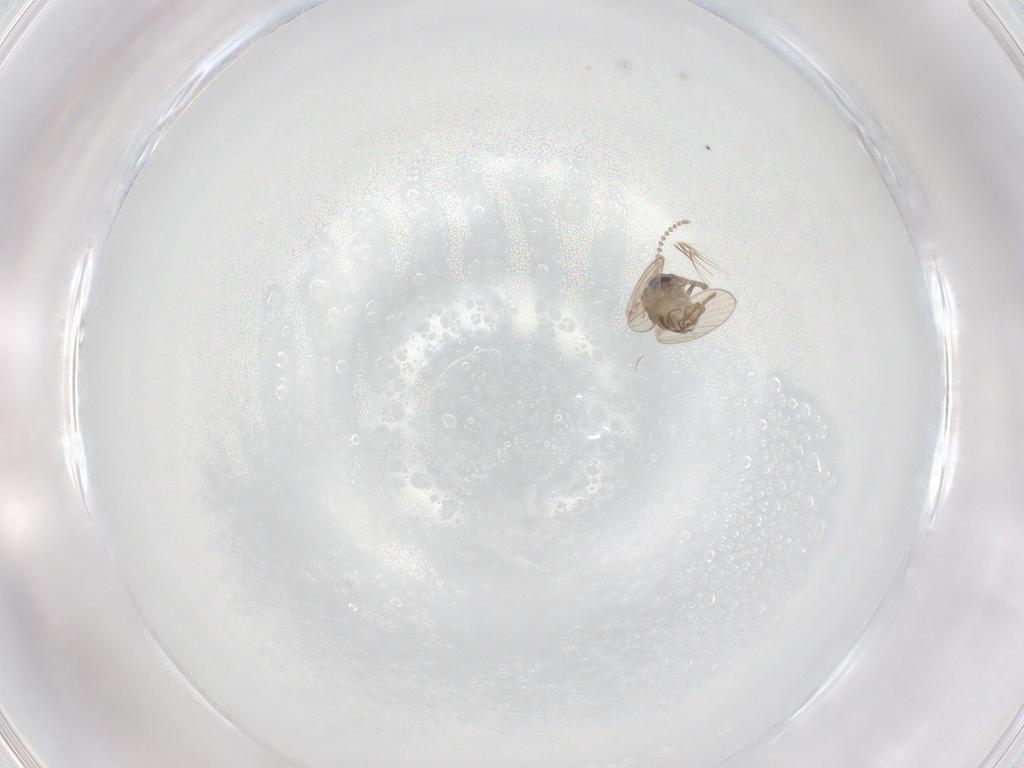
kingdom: Animalia
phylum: Arthropoda
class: Insecta
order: Diptera
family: Psychodidae
